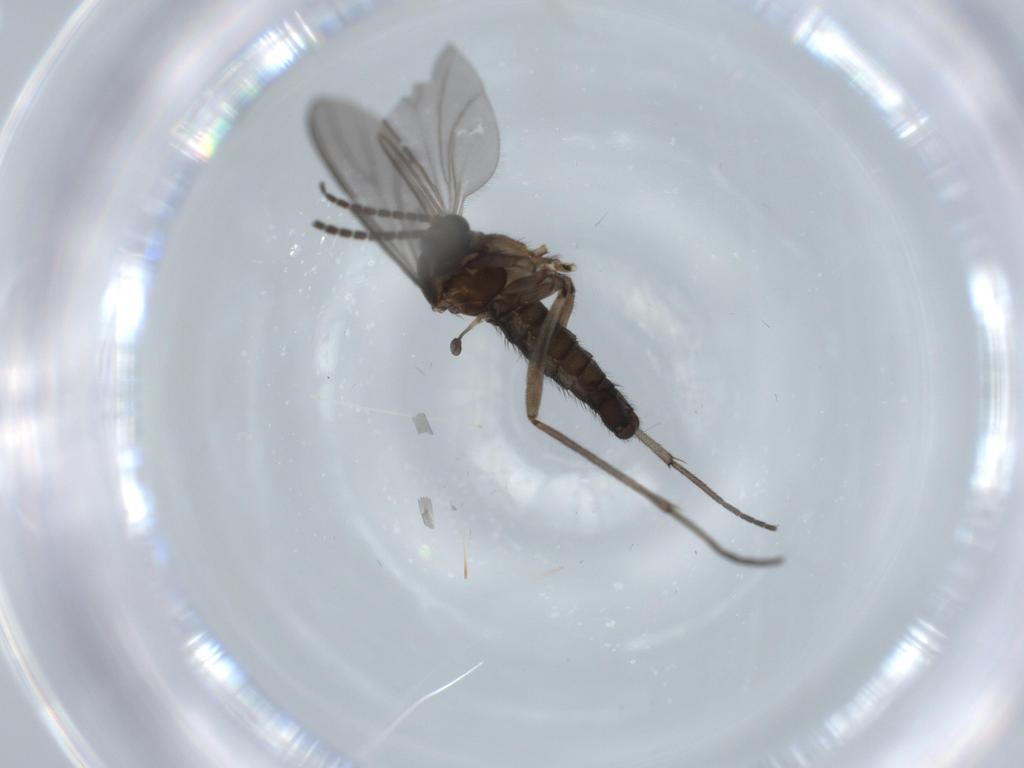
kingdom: Animalia
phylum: Arthropoda
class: Insecta
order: Diptera
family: Sciaridae
